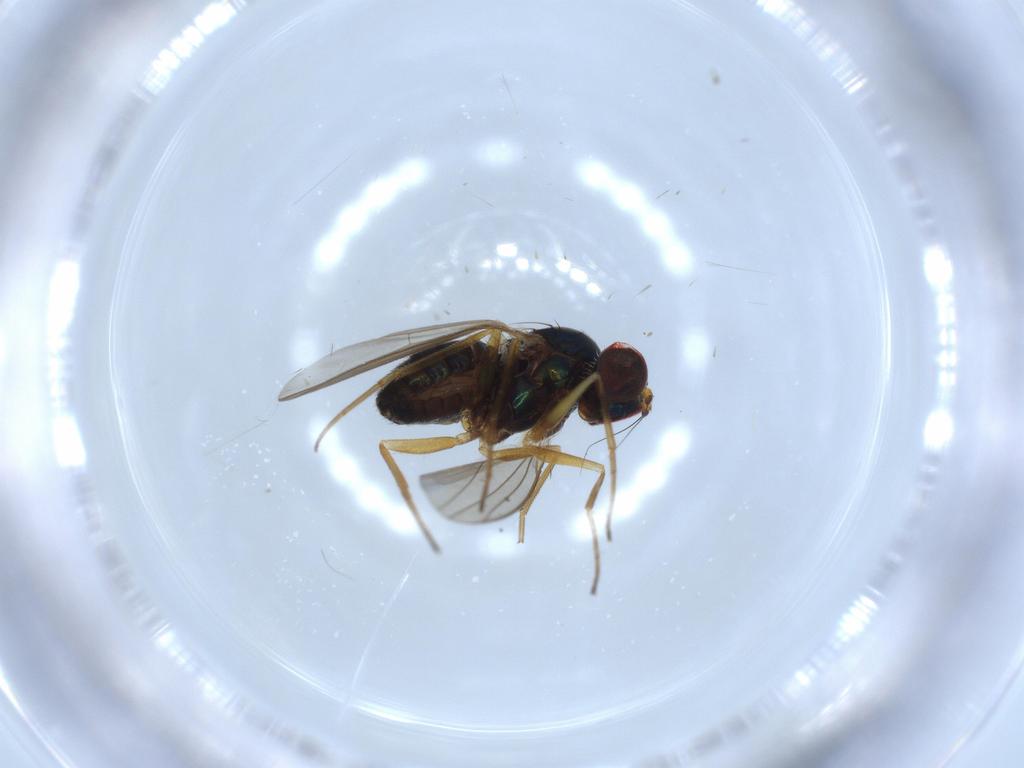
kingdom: Animalia
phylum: Arthropoda
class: Insecta
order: Diptera
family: Dolichopodidae
